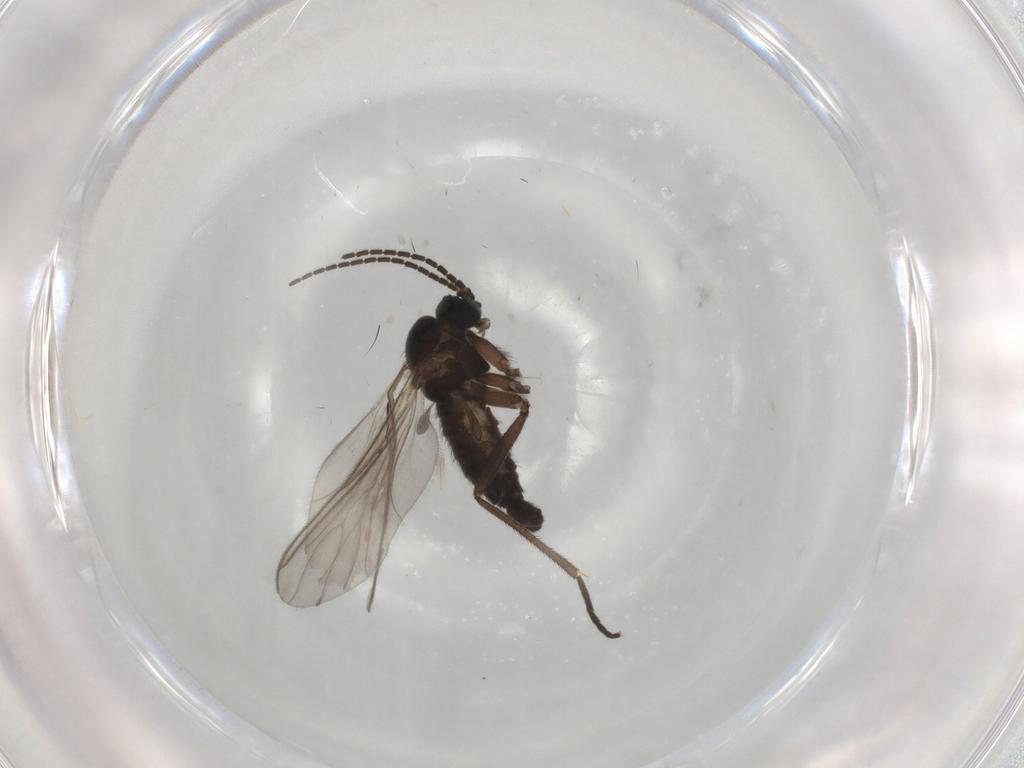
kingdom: Animalia
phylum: Arthropoda
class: Insecta
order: Diptera
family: Sciaridae
